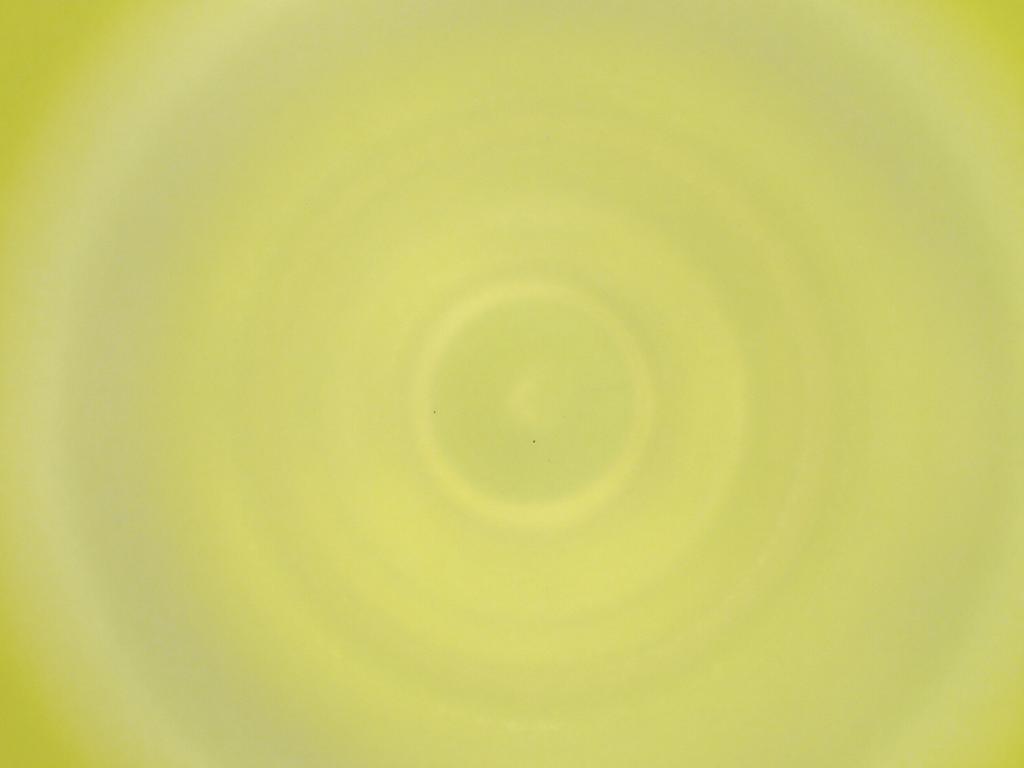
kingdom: Animalia
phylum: Arthropoda
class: Insecta
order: Diptera
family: Cecidomyiidae
